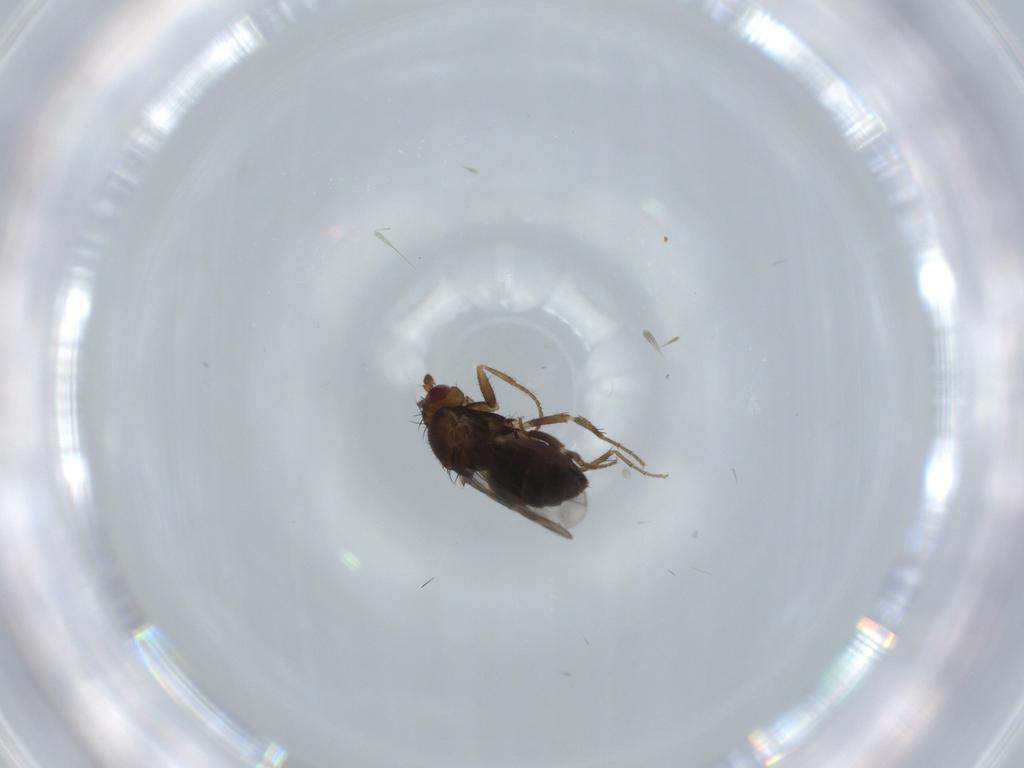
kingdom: Animalia
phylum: Arthropoda
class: Insecta
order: Diptera
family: Sphaeroceridae
